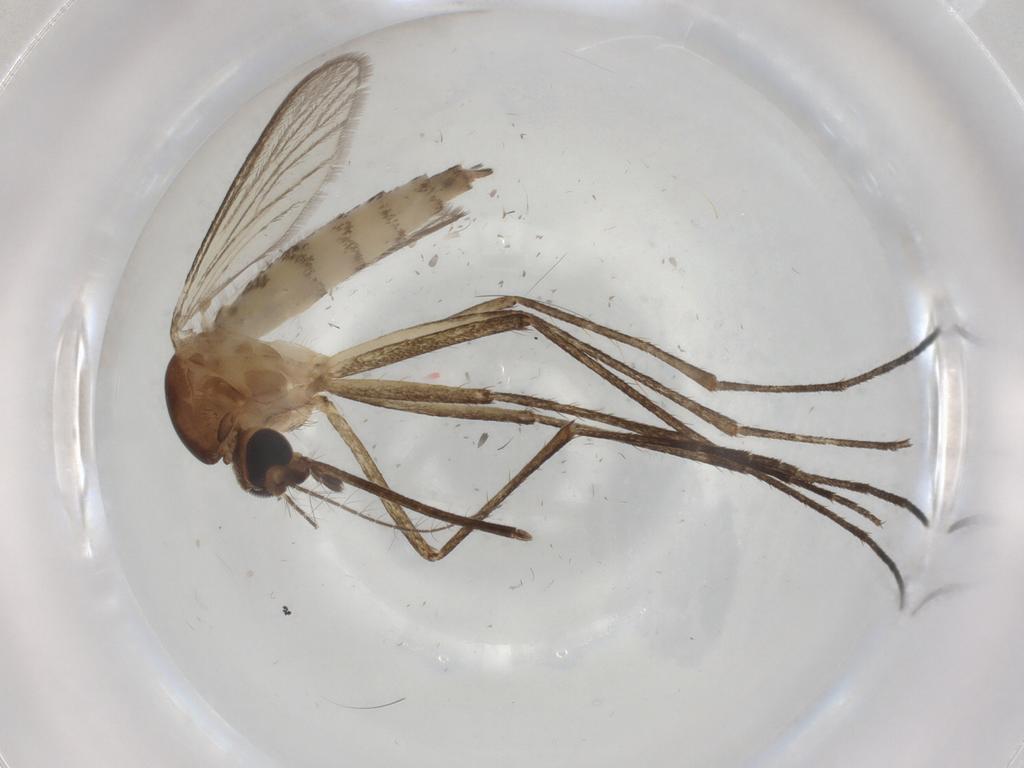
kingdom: Animalia
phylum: Arthropoda
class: Insecta
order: Diptera
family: Culicidae
